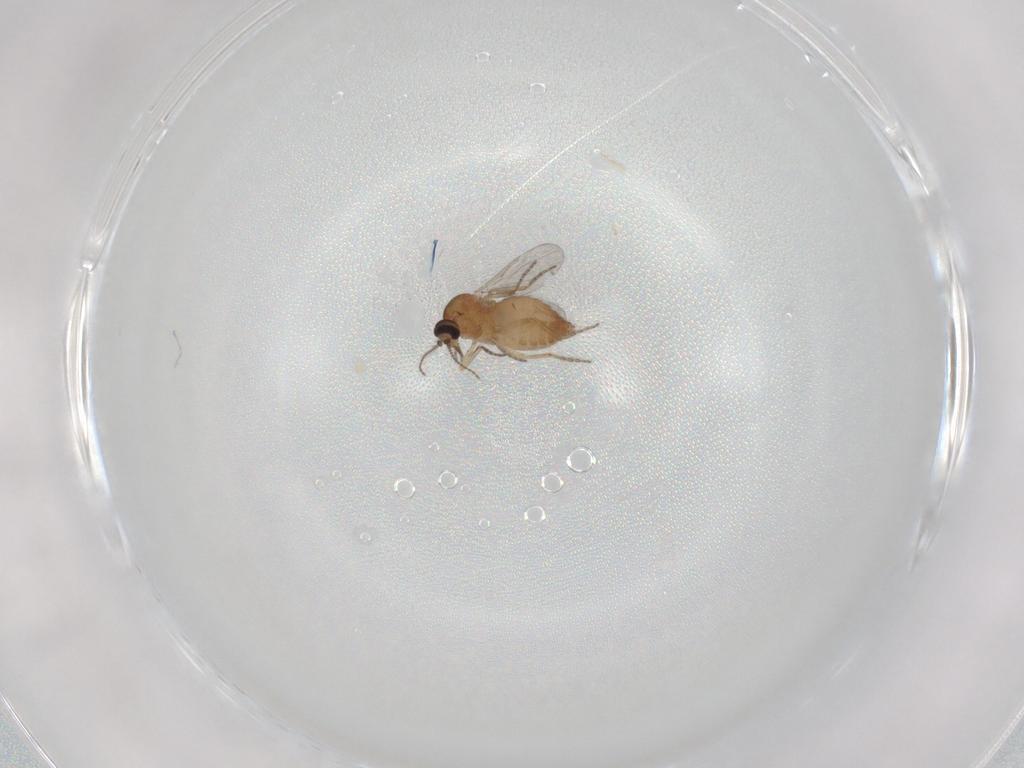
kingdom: Animalia
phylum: Arthropoda
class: Insecta
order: Diptera
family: Ceratopogonidae
